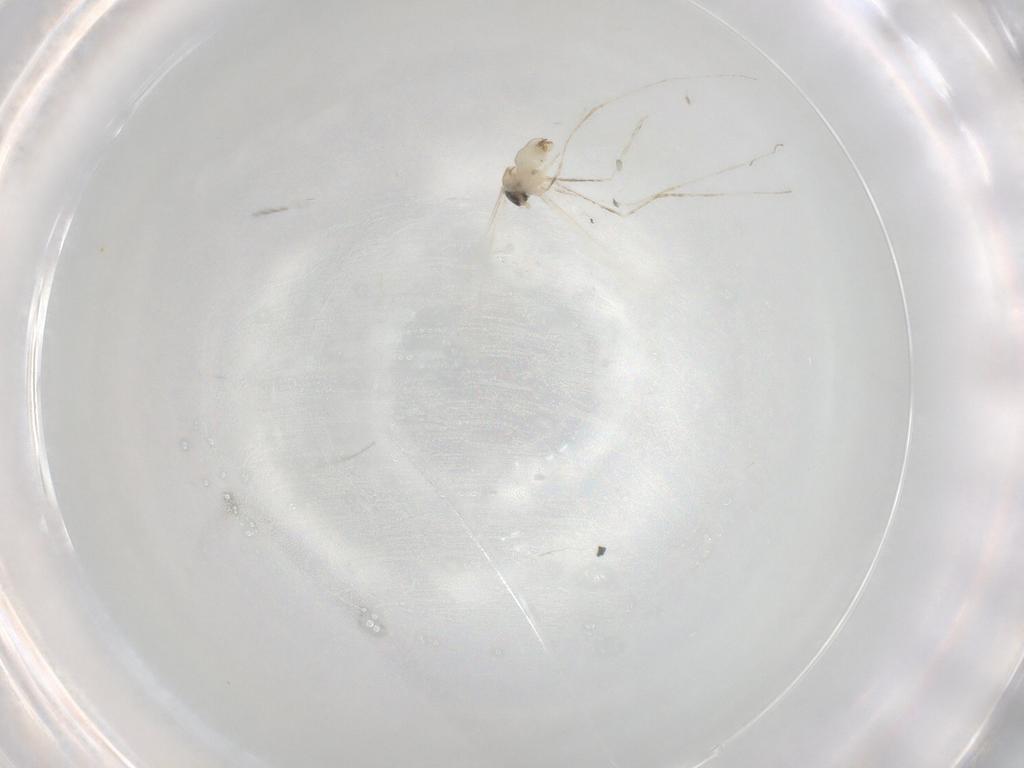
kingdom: Animalia
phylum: Arthropoda
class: Insecta
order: Diptera
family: Cecidomyiidae
